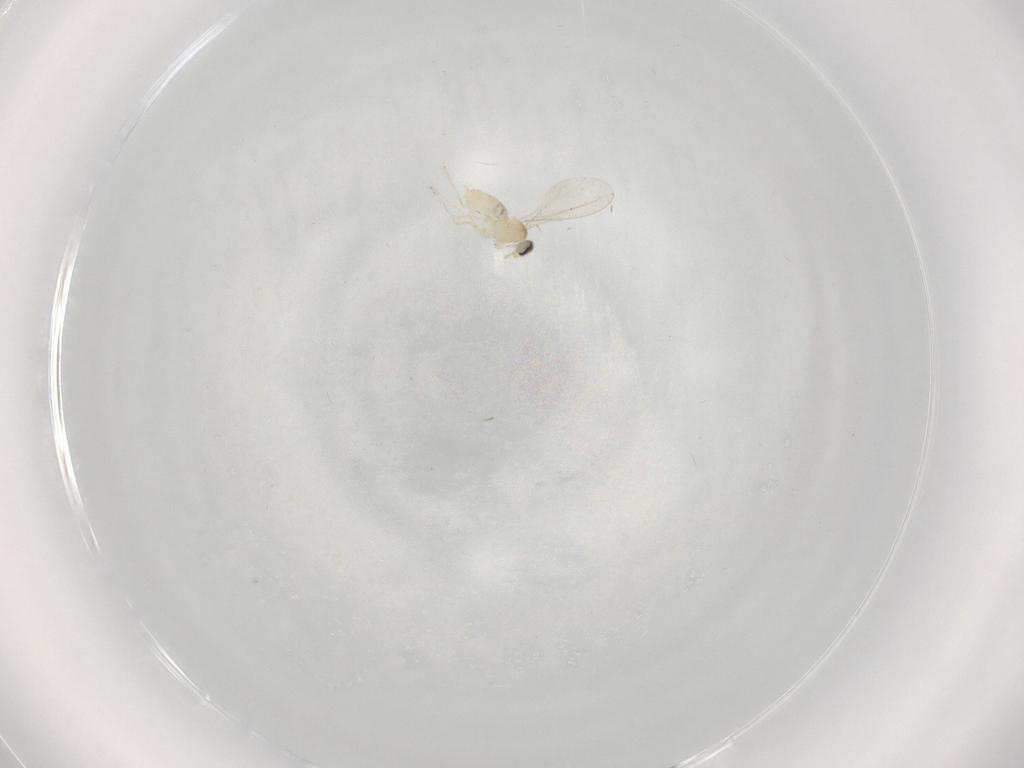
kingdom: Animalia
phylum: Arthropoda
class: Insecta
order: Diptera
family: Cecidomyiidae
